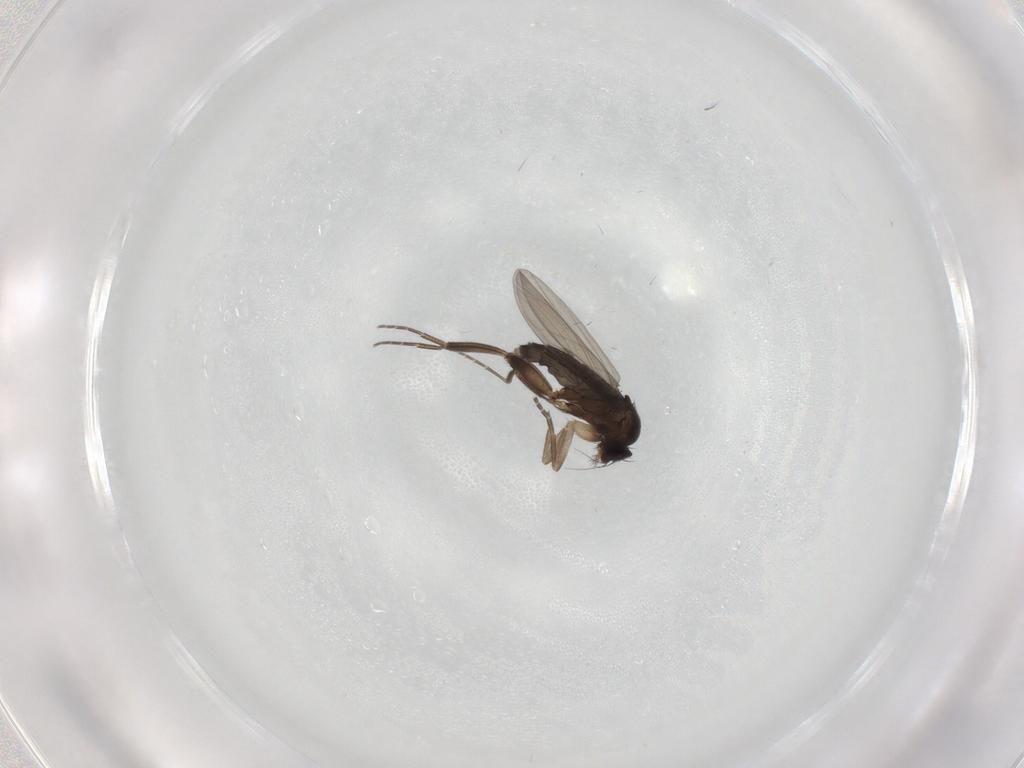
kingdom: Animalia
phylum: Arthropoda
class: Insecta
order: Diptera
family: Phoridae
